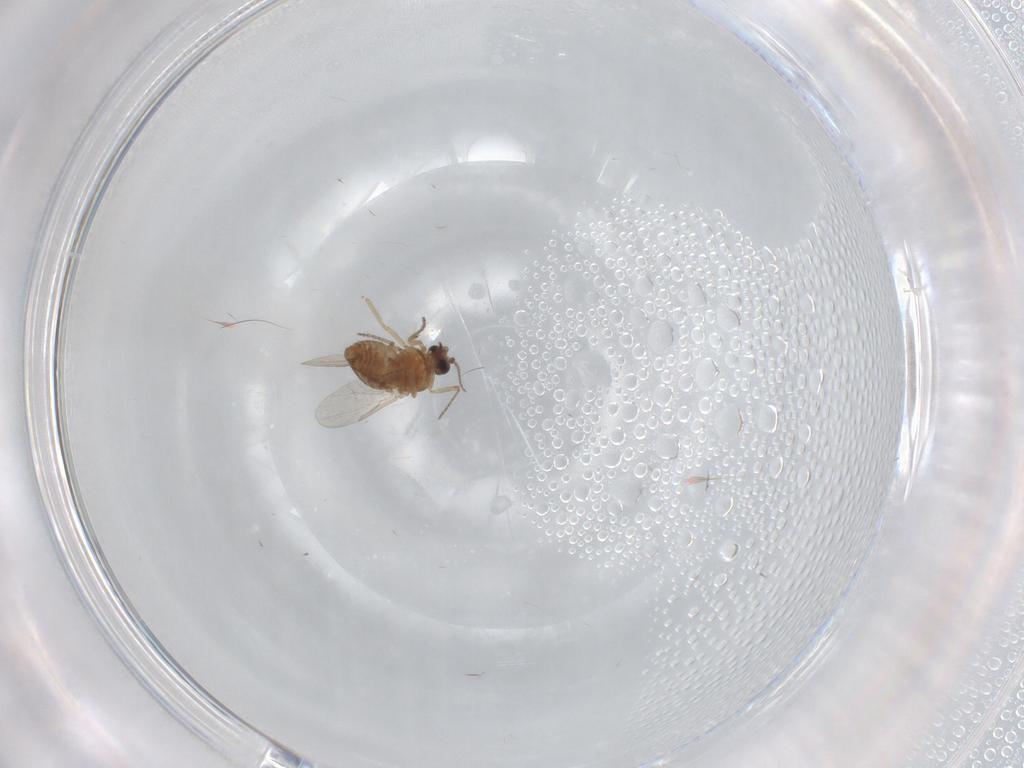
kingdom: Animalia
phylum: Arthropoda
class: Insecta
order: Diptera
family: Ceratopogonidae
